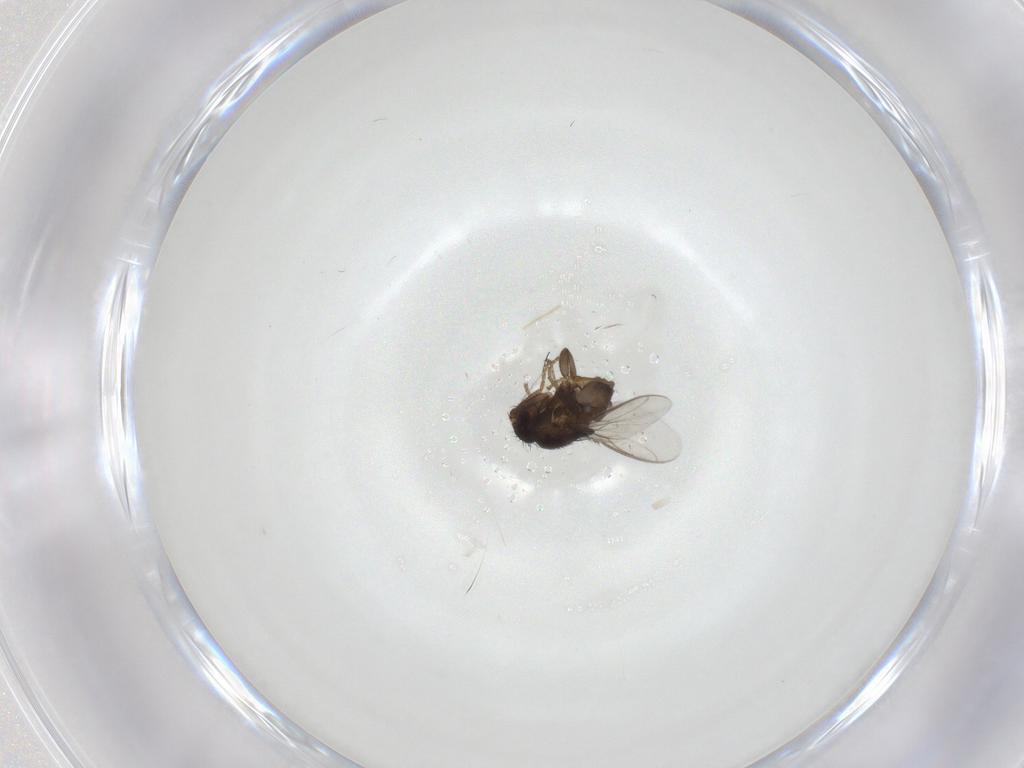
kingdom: Animalia
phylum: Arthropoda
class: Insecta
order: Diptera
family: Sphaeroceridae
